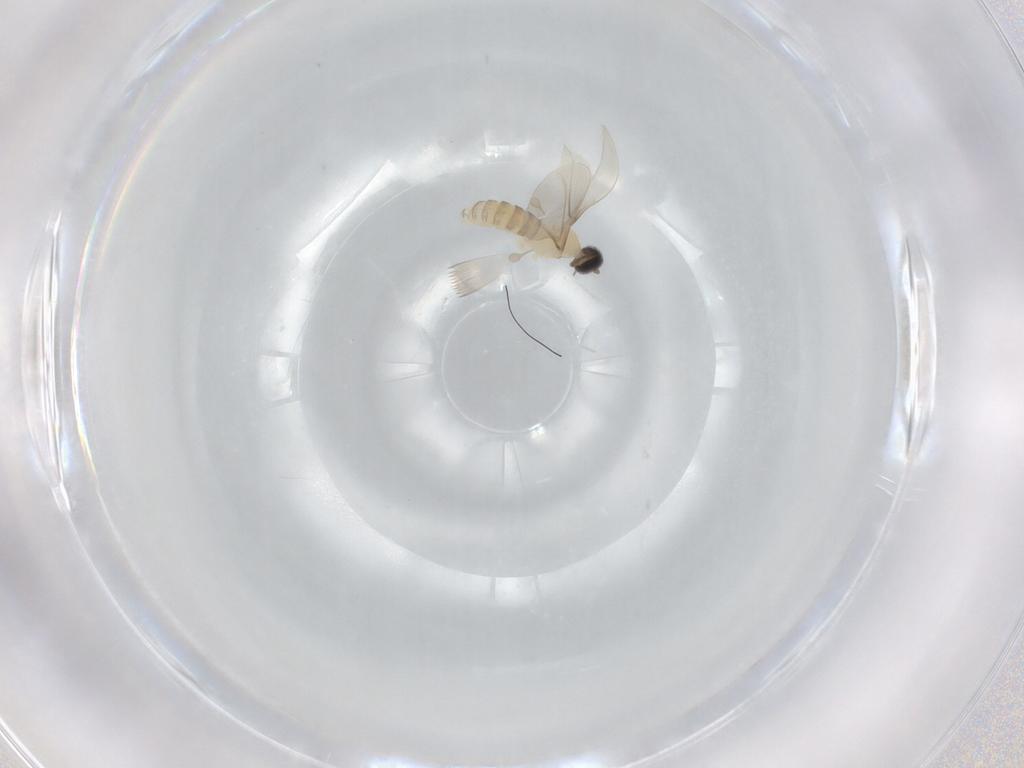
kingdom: Animalia
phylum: Arthropoda
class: Insecta
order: Diptera
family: Cecidomyiidae
